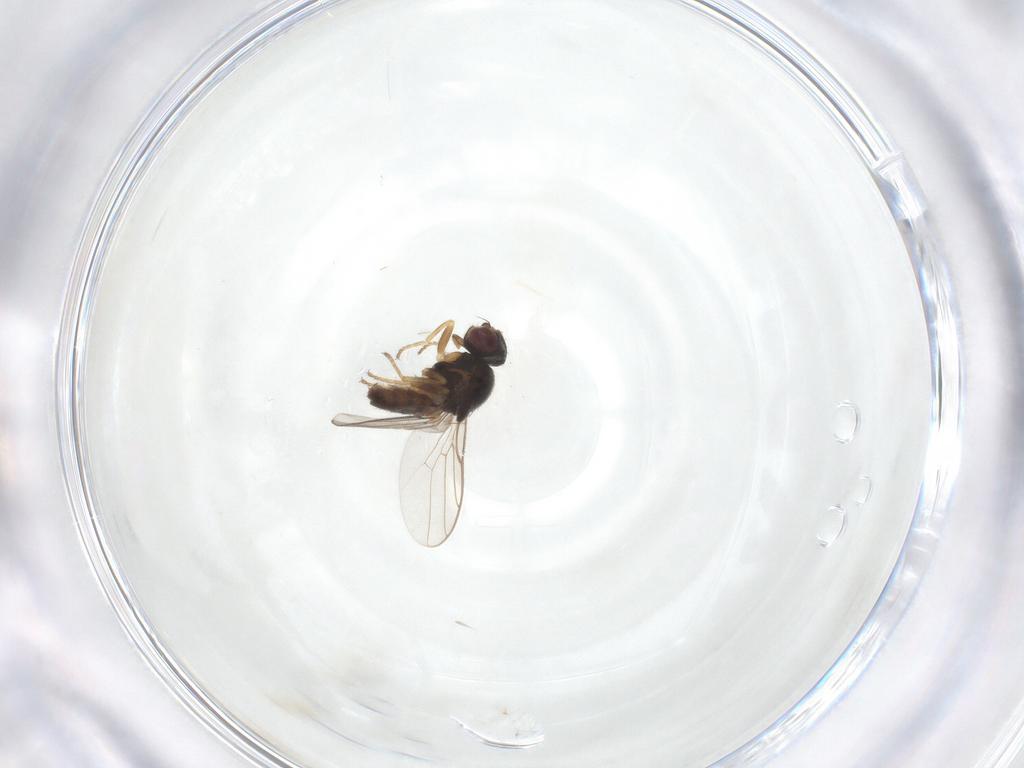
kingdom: Animalia
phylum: Arthropoda
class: Insecta
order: Diptera
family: Chloropidae
